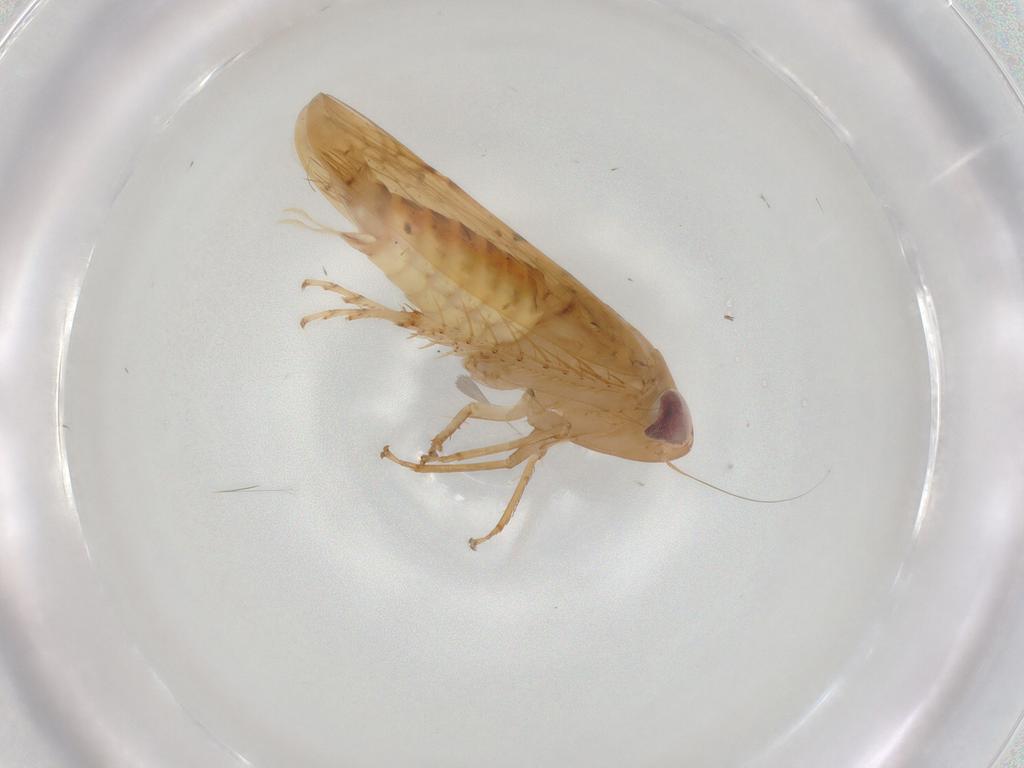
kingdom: Animalia
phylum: Arthropoda
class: Insecta
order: Hemiptera
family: Cicadellidae
